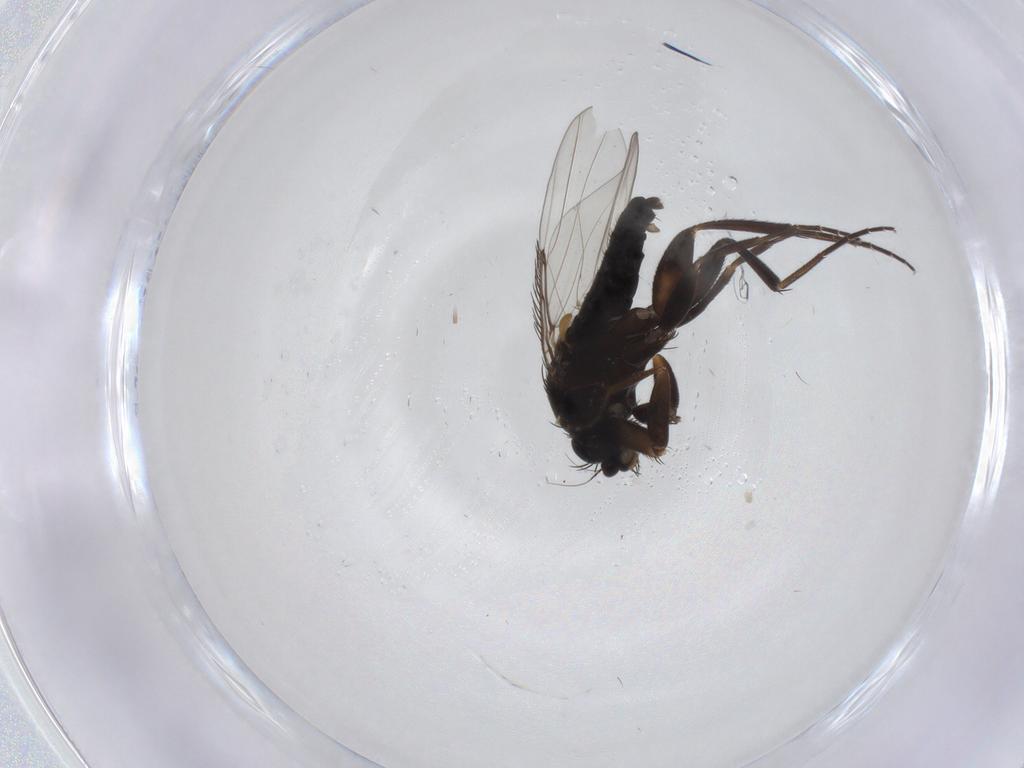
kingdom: Animalia
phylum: Arthropoda
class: Insecta
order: Diptera
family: Phoridae
